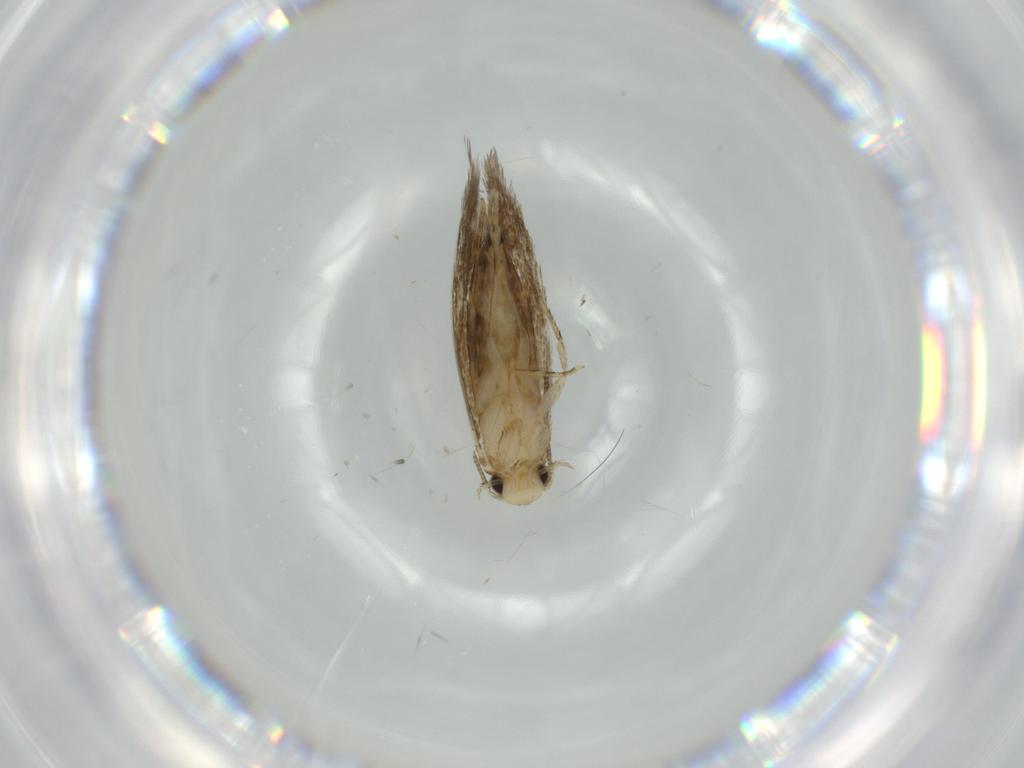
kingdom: Animalia
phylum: Arthropoda
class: Insecta
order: Lepidoptera
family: Tineidae
